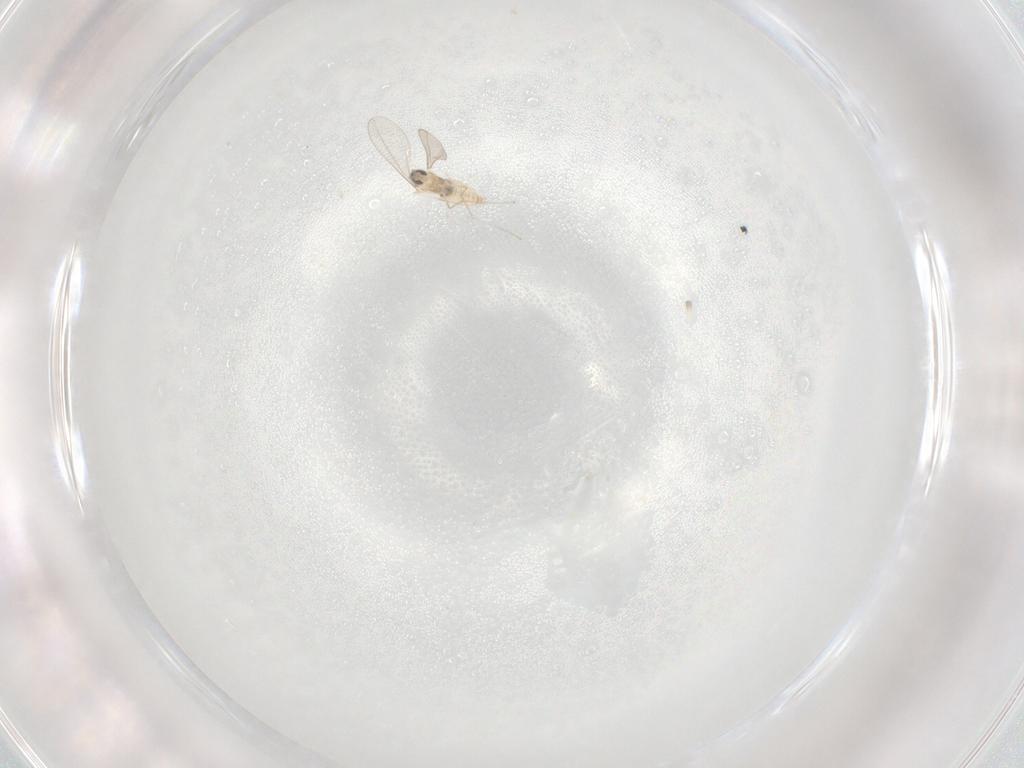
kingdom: Animalia
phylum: Arthropoda
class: Insecta
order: Diptera
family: Cecidomyiidae
